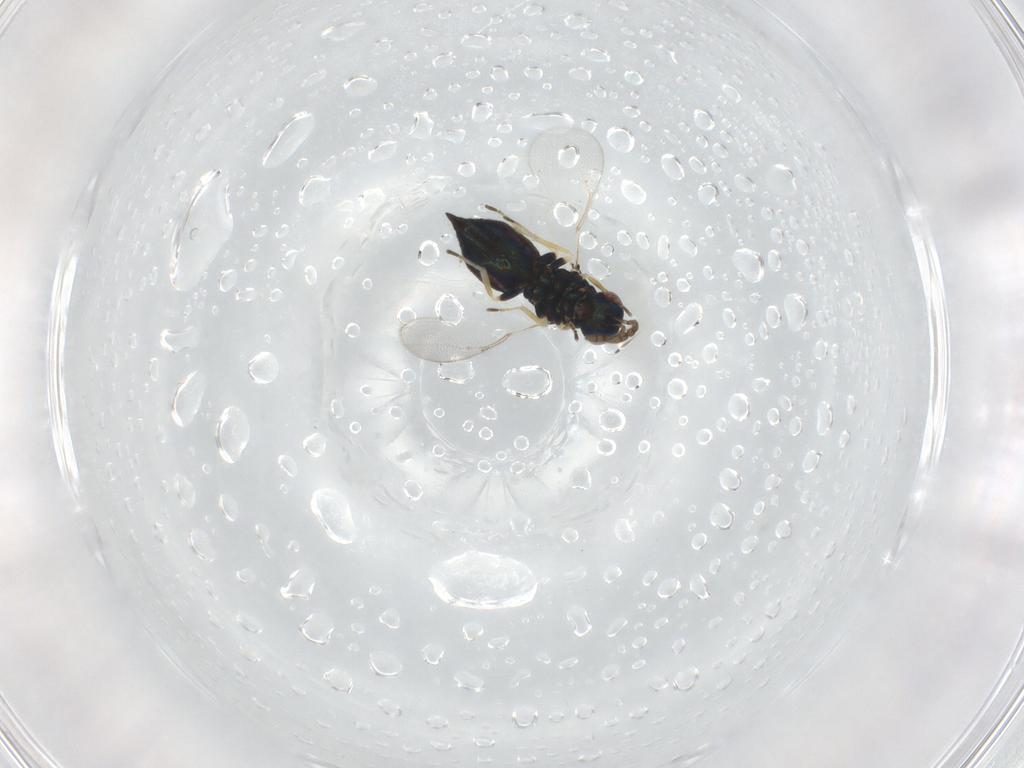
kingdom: Animalia
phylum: Arthropoda
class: Insecta
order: Hymenoptera
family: Eulophidae
